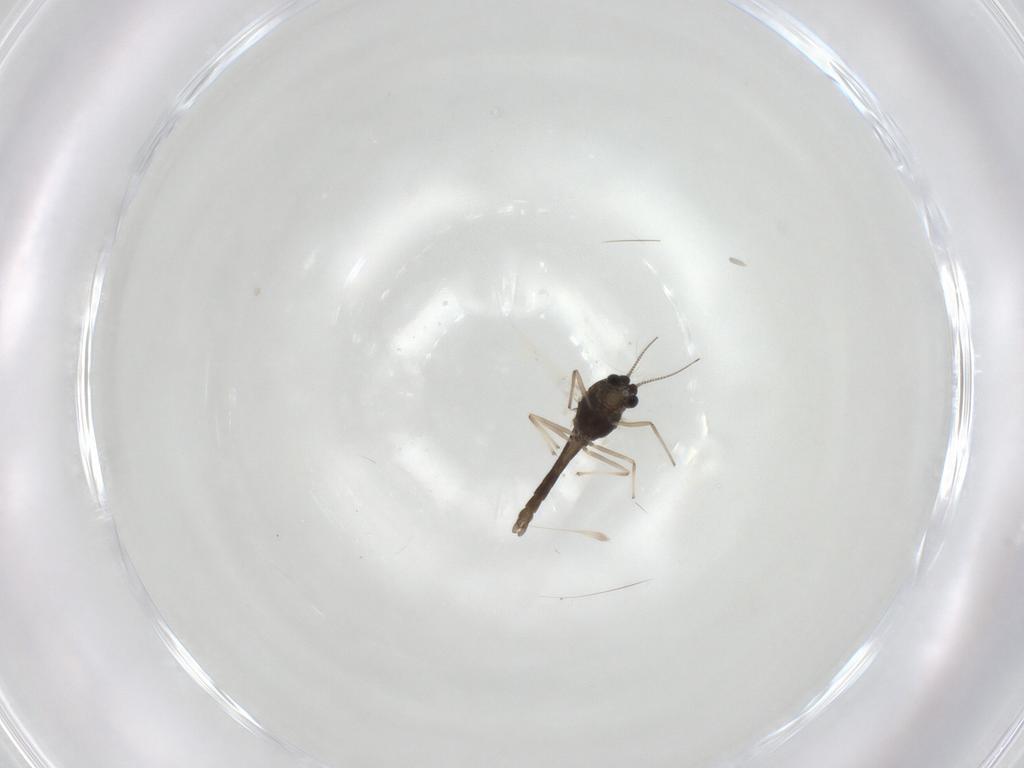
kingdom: Animalia
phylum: Arthropoda
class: Insecta
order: Diptera
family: Chironomidae
